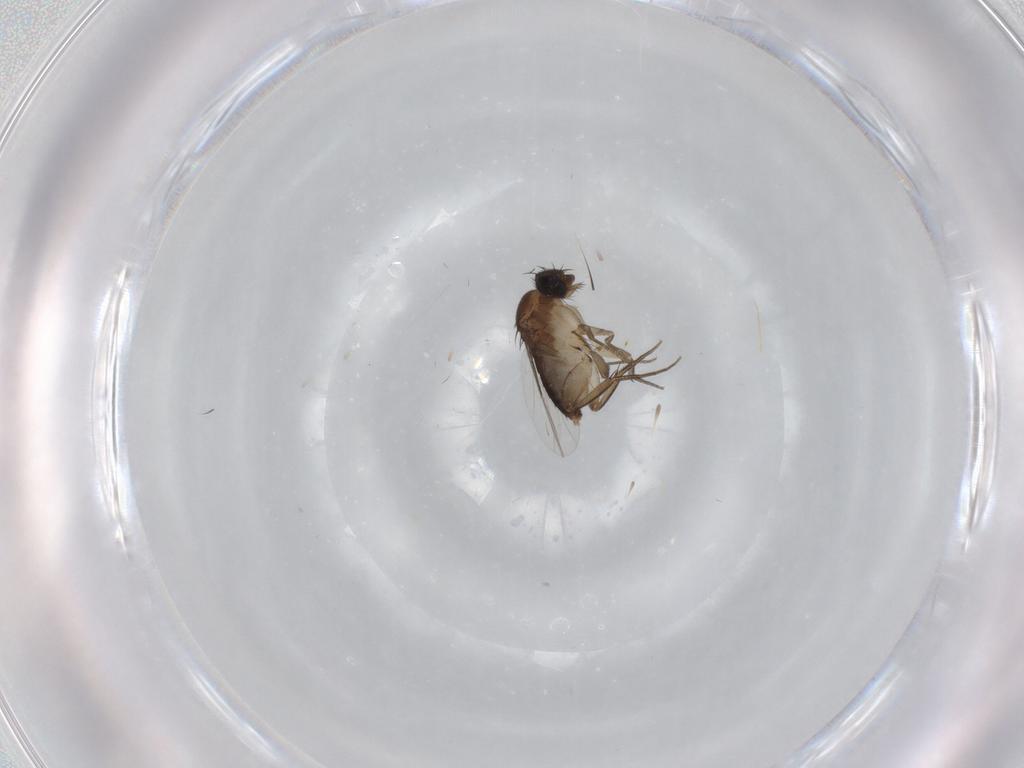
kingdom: Animalia
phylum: Arthropoda
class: Insecta
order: Diptera
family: Phoridae
